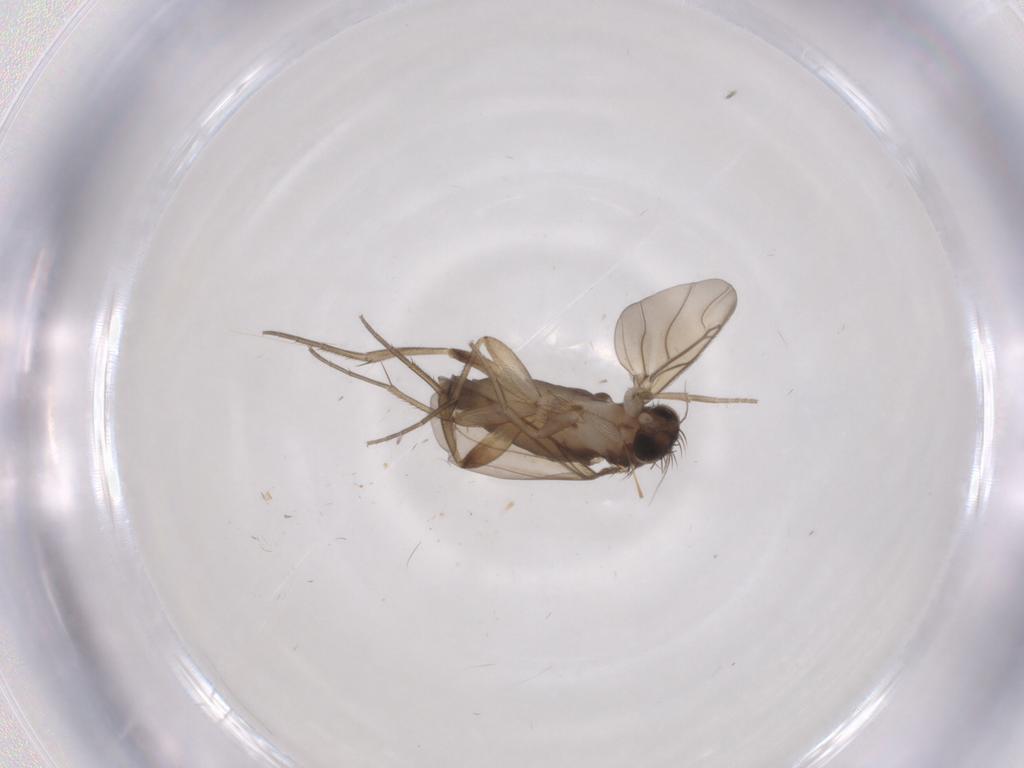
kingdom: Animalia
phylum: Arthropoda
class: Insecta
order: Diptera
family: Phoridae
